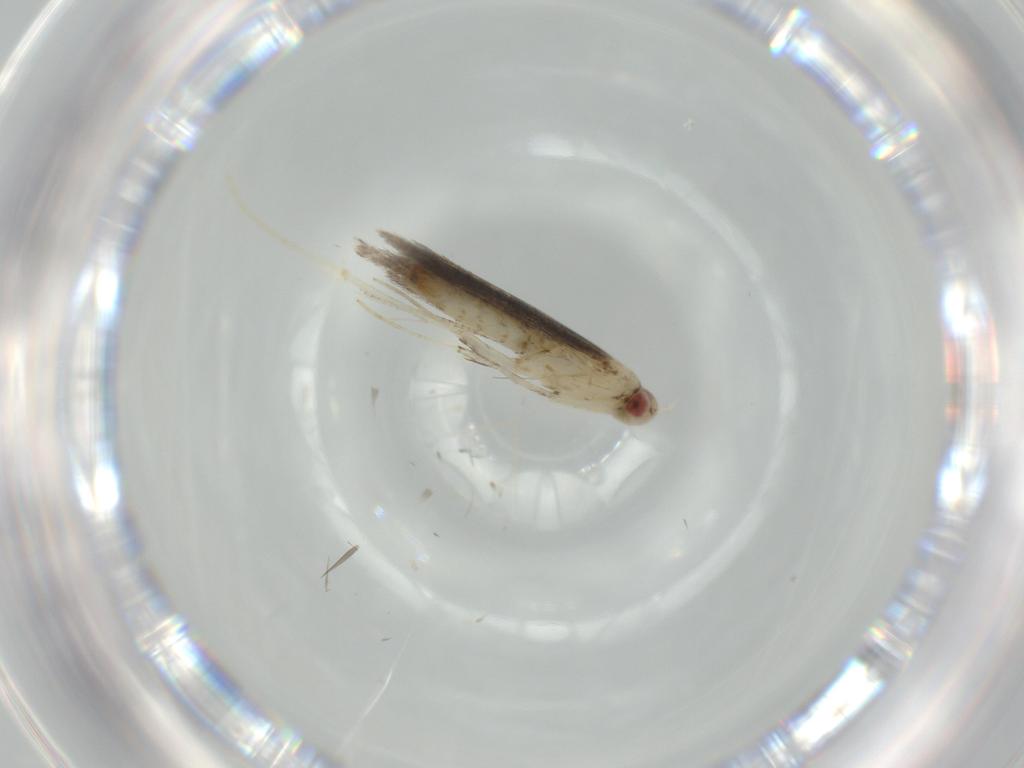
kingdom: Animalia
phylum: Arthropoda
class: Insecta
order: Lepidoptera
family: Gracillariidae
